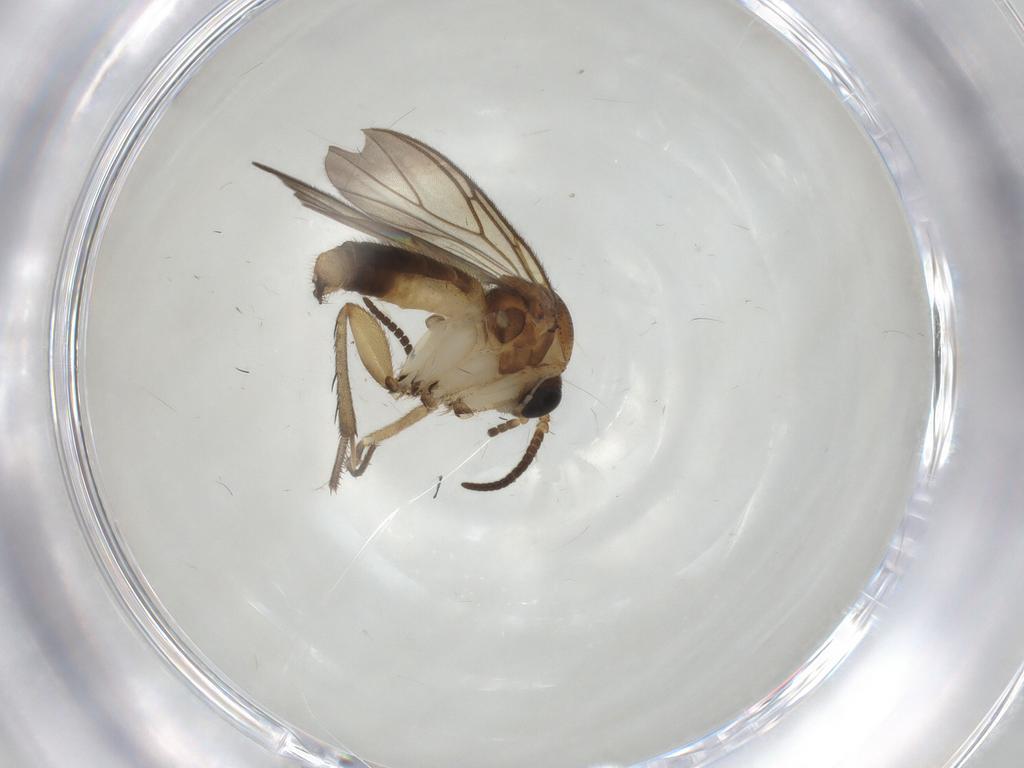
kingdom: Animalia
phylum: Arthropoda
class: Insecta
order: Diptera
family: Mycetophilidae
